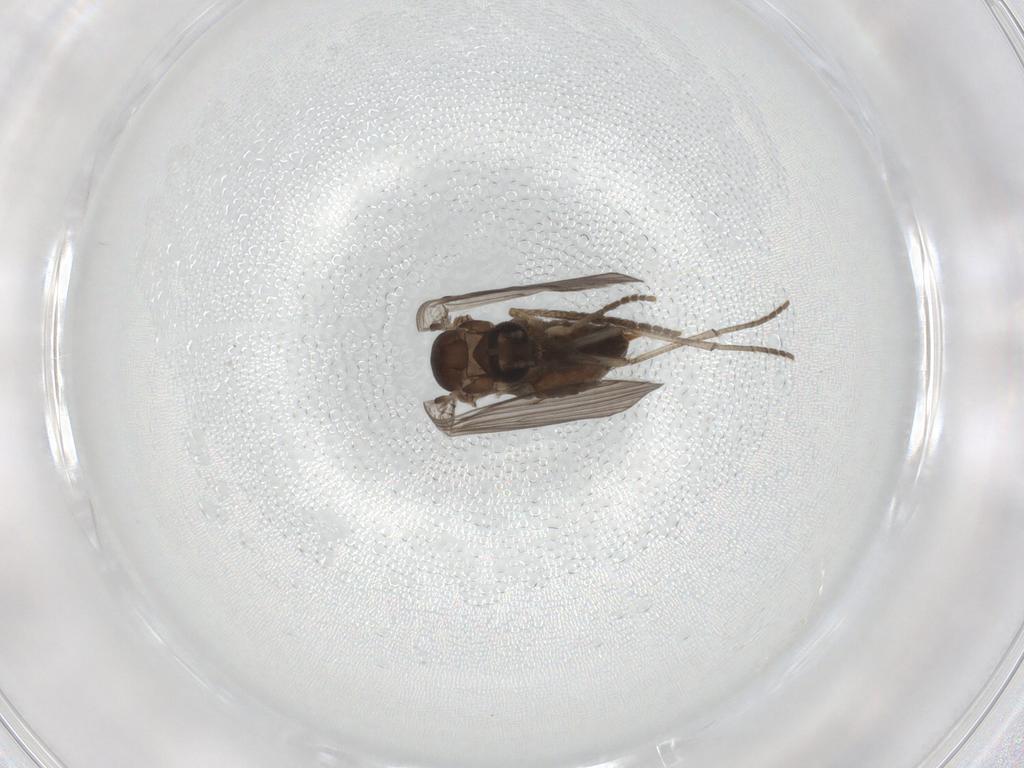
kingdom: Animalia
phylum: Arthropoda
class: Insecta
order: Diptera
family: Psychodidae
